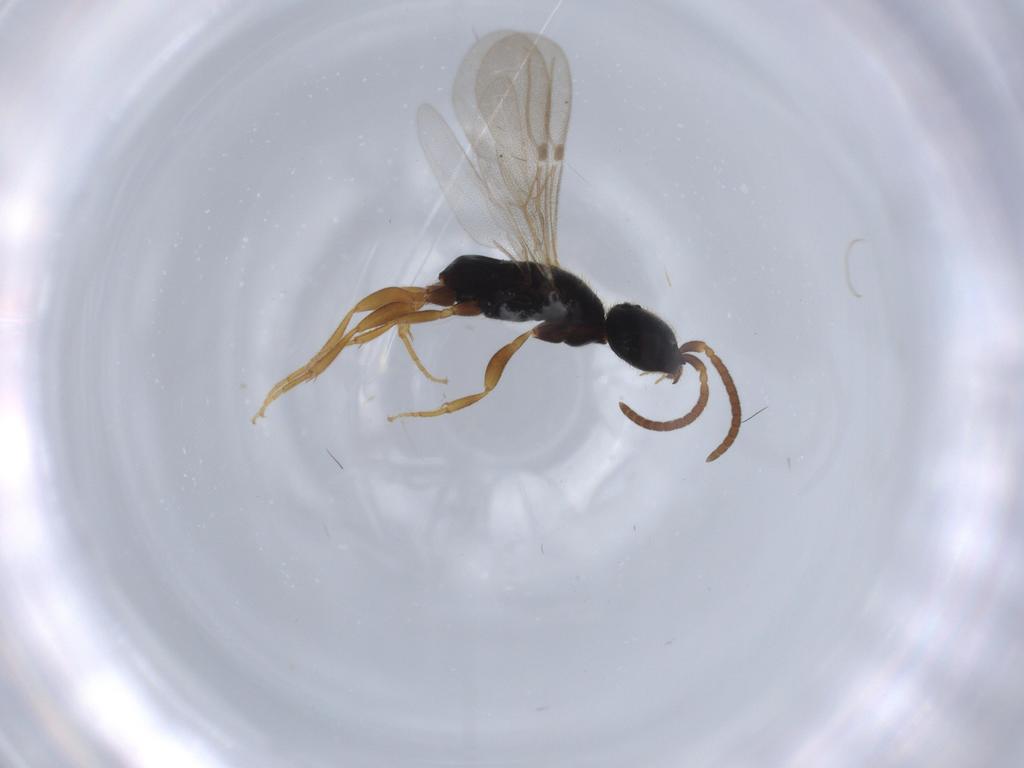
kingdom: Animalia
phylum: Arthropoda
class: Insecta
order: Hymenoptera
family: Bethylidae
